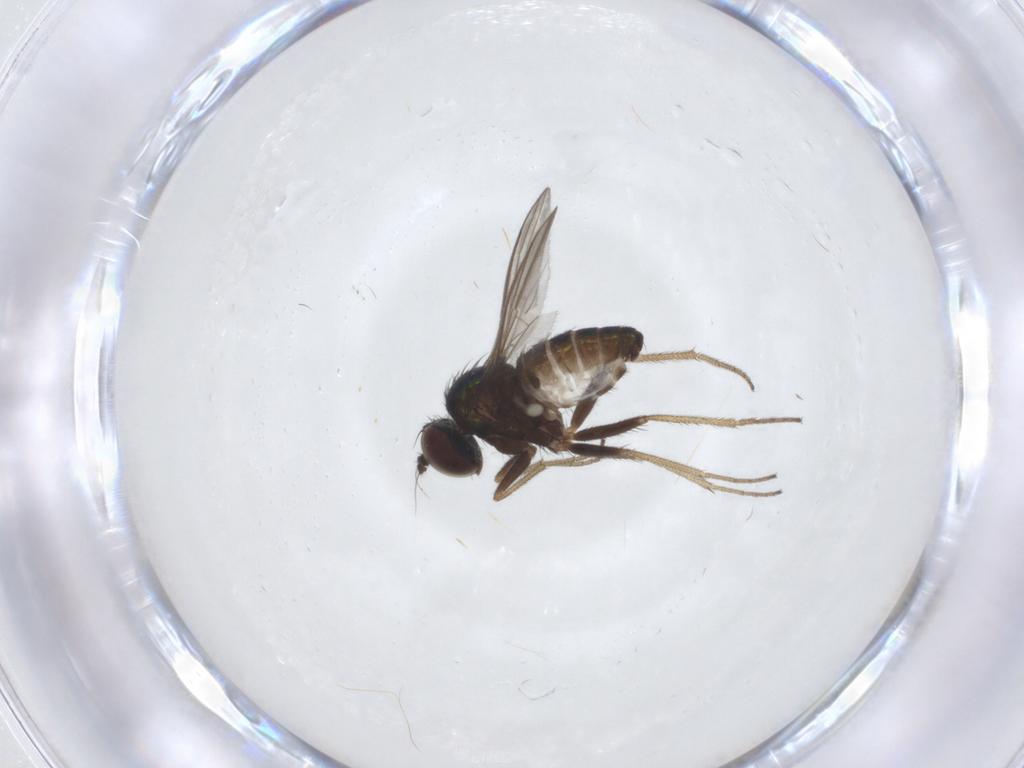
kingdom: Animalia
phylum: Arthropoda
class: Insecta
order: Diptera
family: Dolichopodidae
